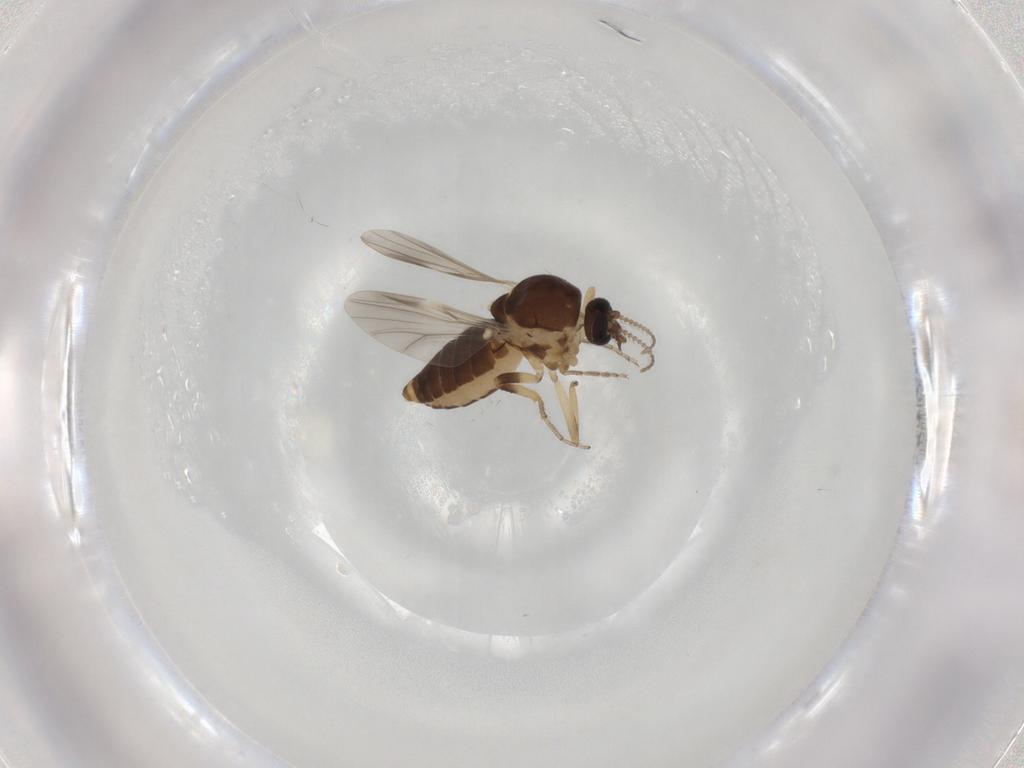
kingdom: Animalia
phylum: Arthropoda
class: Insecta
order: Diptera
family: Ceratopogonidae
